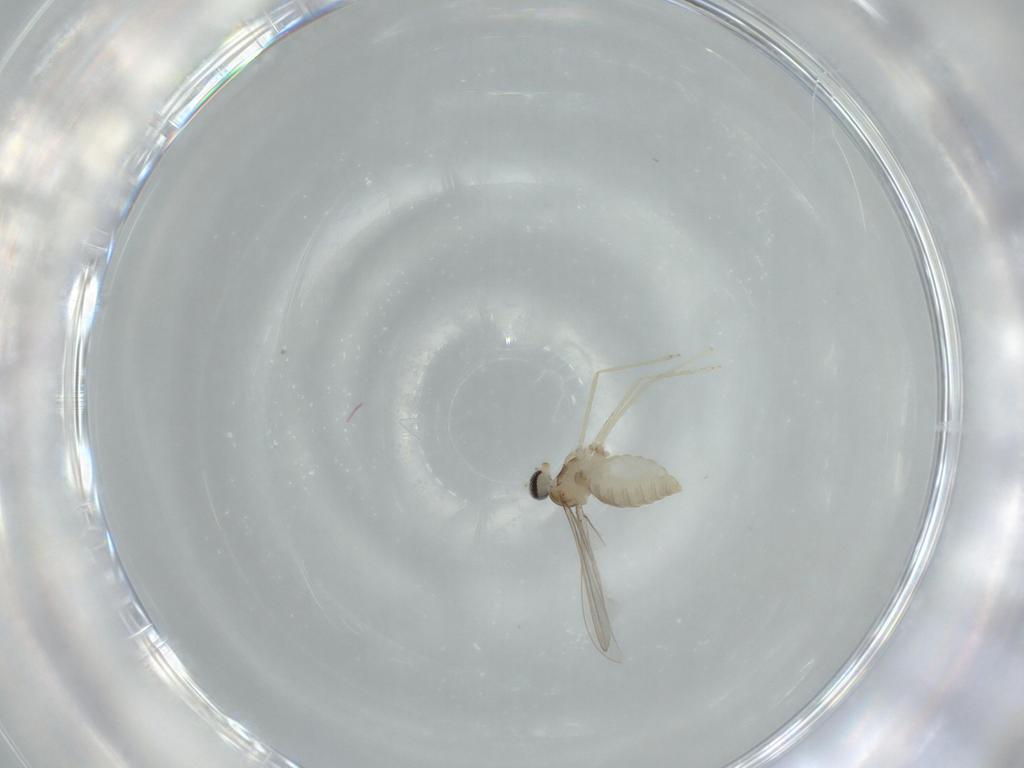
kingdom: Animalia
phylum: Arthropoda
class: Insecta
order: Diptera
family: Cecidomyiidae
